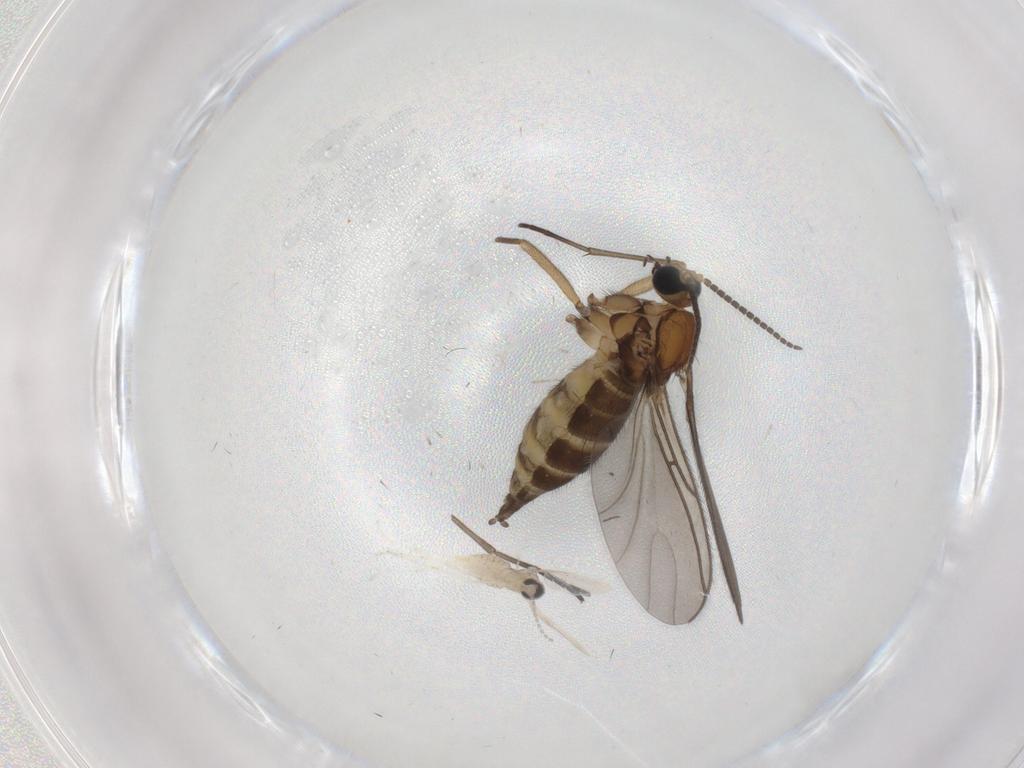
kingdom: Animalia
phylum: Arthropoda
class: Insecta
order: Diptera
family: Sciaridae
